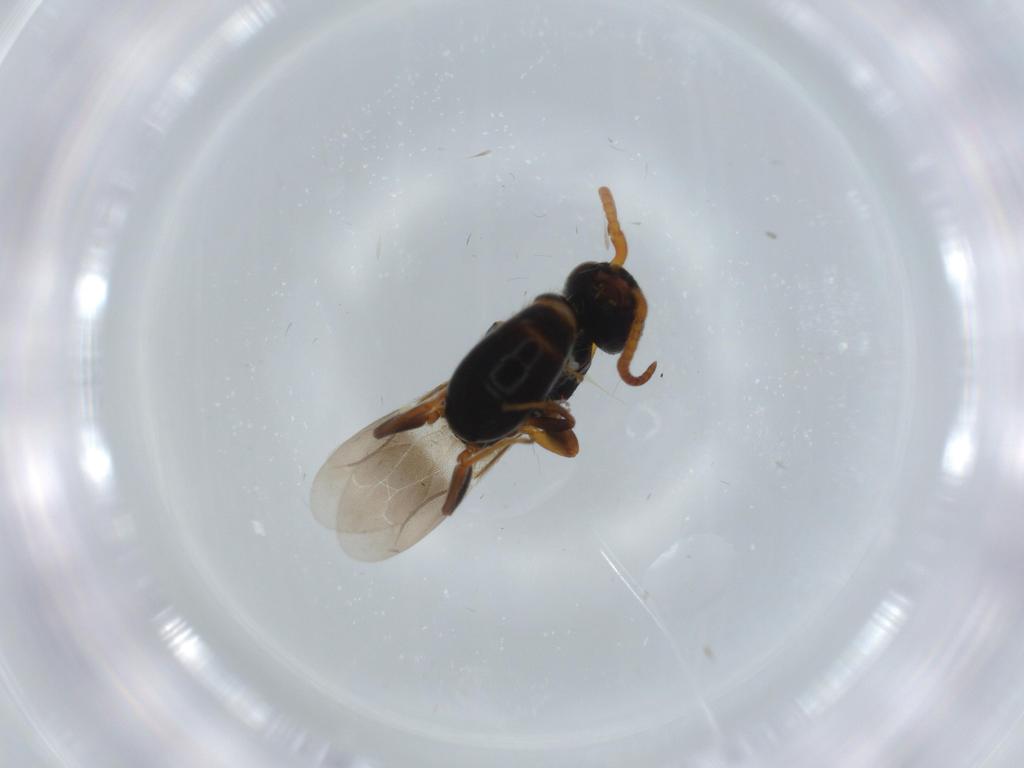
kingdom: Animalia
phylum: Arthropoda
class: Insecta
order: Hymenoptera
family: Bethylidae
